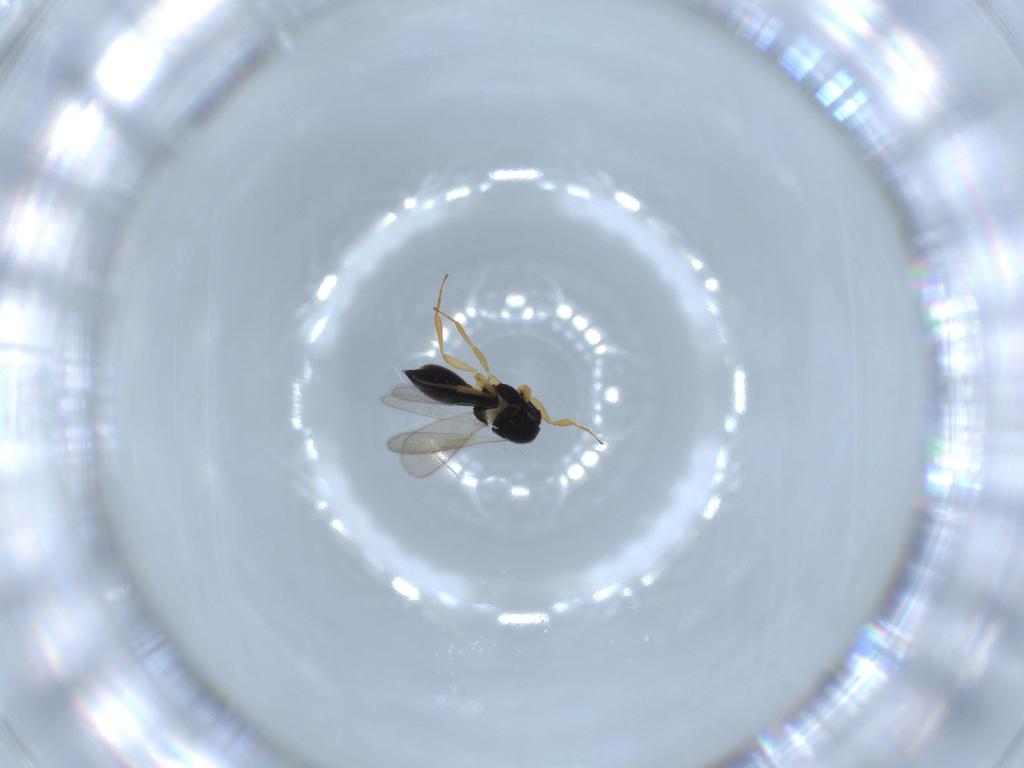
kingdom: Animalia
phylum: Arthropoda
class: Insecta
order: Hymenoptera
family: Scelionidae
